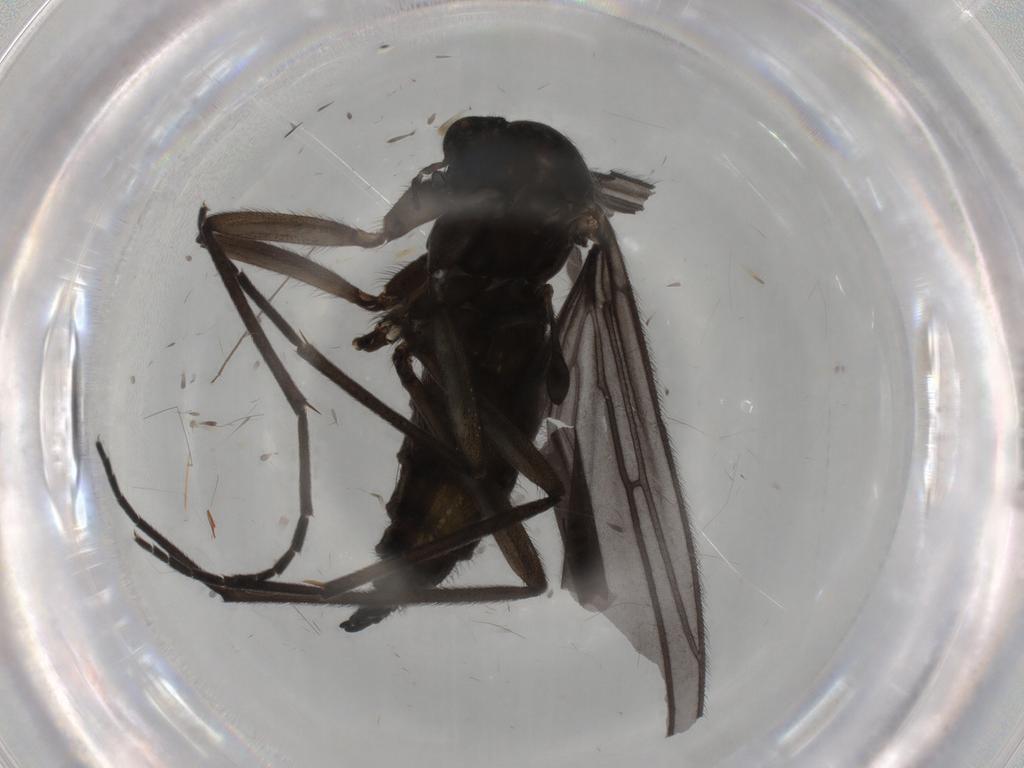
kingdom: Animalia
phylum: Arthropoda
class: Insecta
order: Diptera
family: Sciaridae
